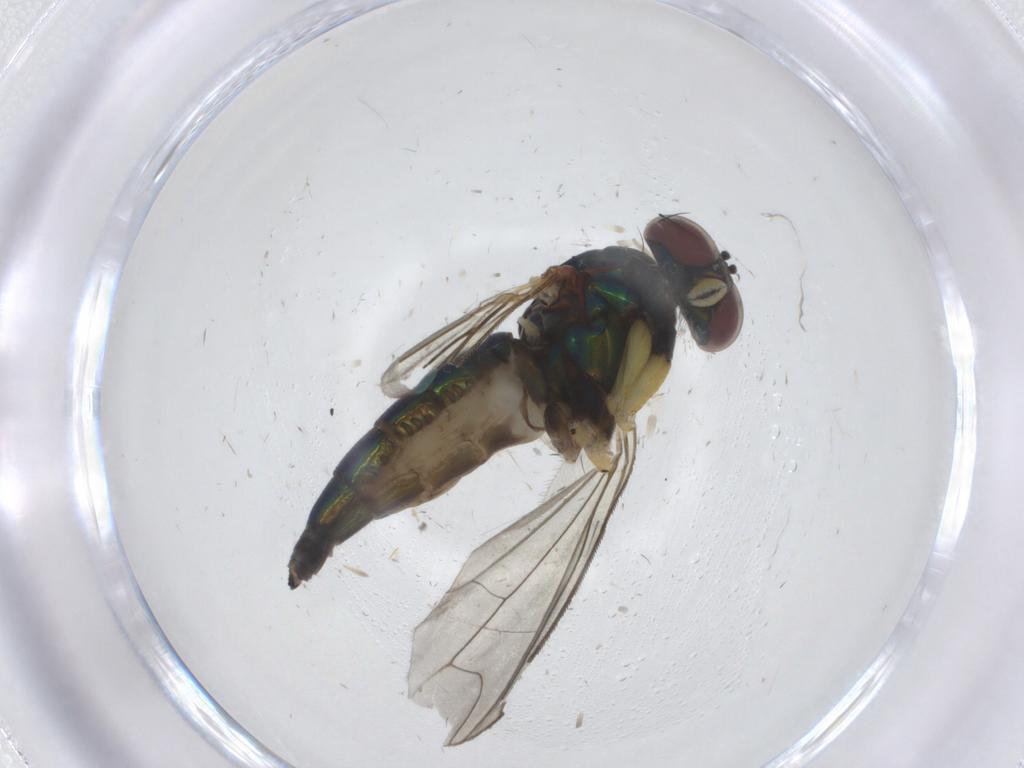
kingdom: Animalia
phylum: Arthropoda
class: Insecta
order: Diptera
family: Dolichopodidae
